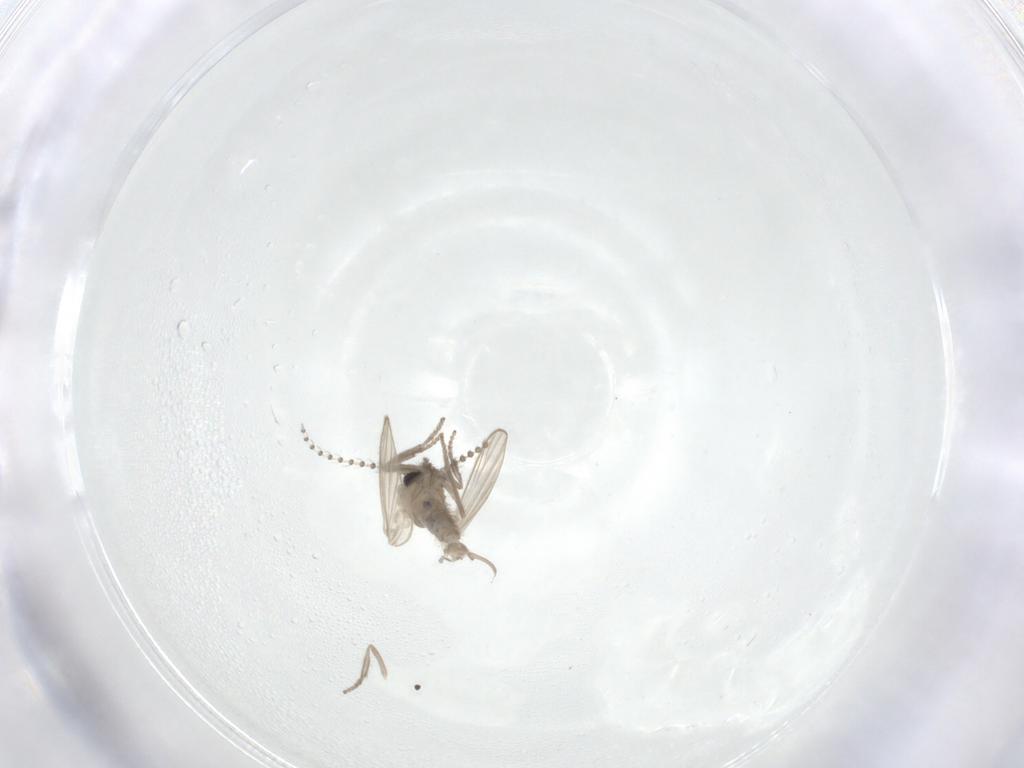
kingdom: Animalia
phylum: Arthropoda
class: Insecta
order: Diptera
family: Psychodidae
